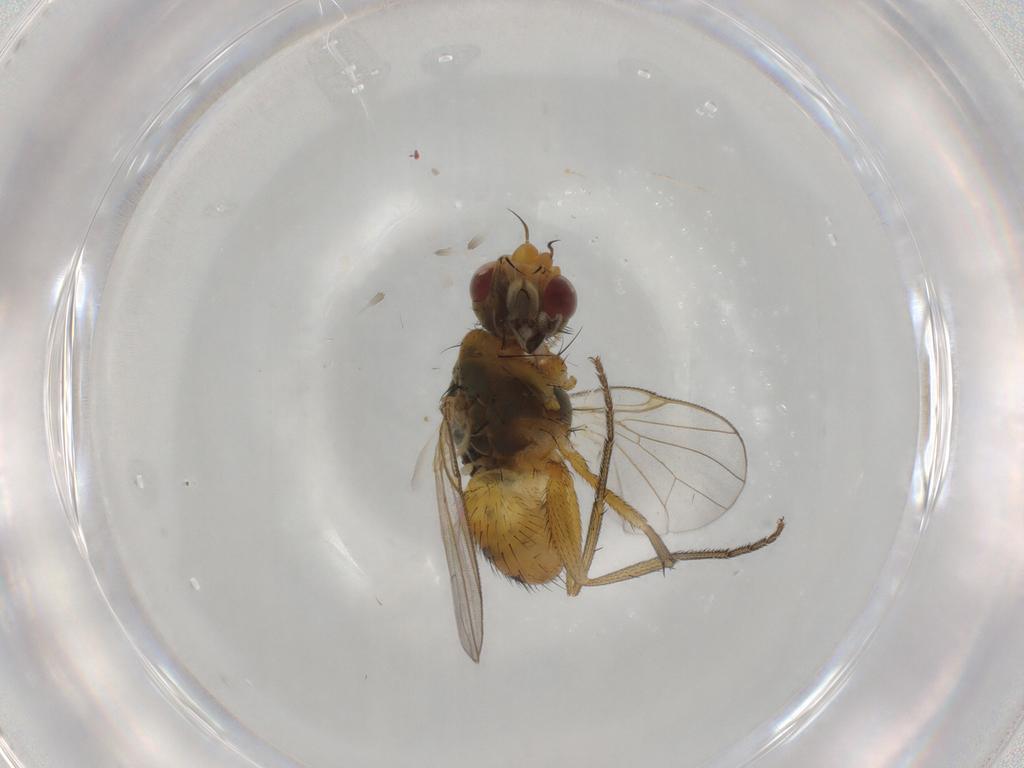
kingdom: Animalia
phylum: Arthropoda
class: Insecta
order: Diptera
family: Muscidae
